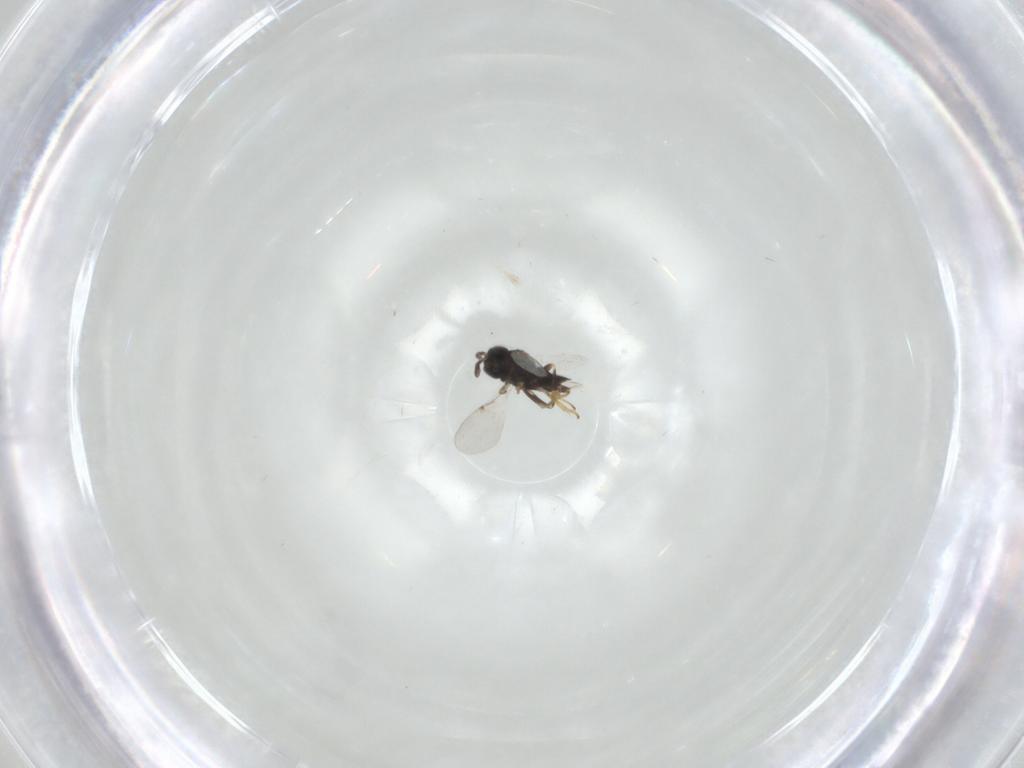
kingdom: Animalia
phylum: Arthropoda
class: Insecta
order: Hymenoptera
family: Encyrtidae
